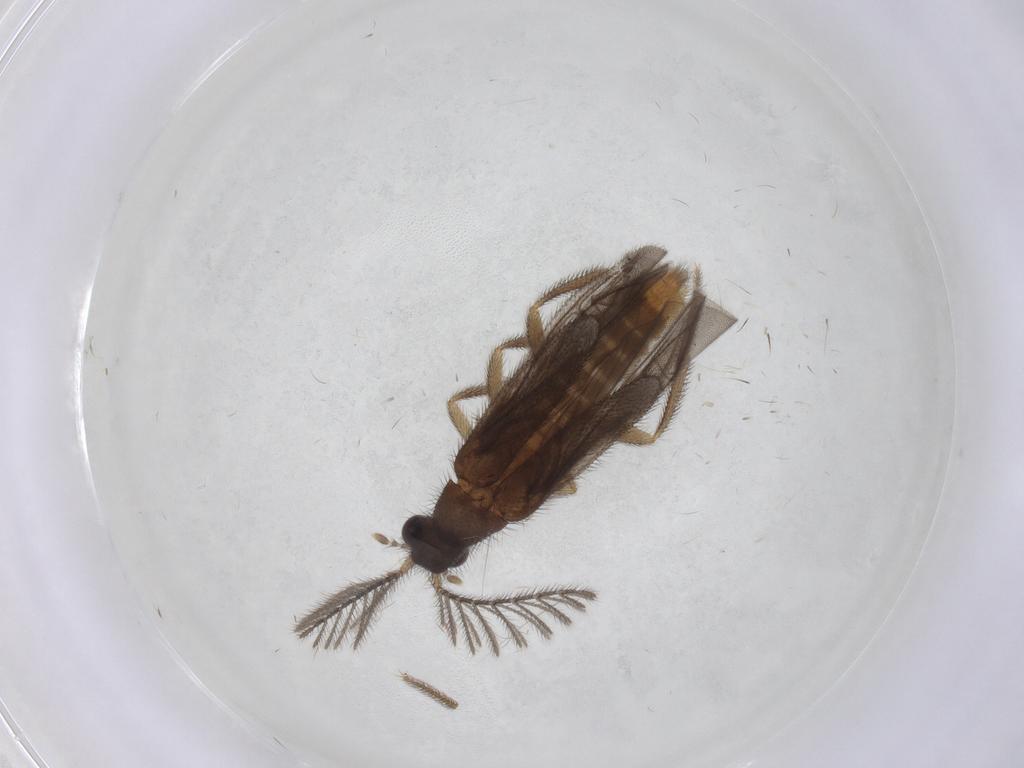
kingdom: Animalia
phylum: Arthropoda
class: Insecta
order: Coleoptera
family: Phengodidae
